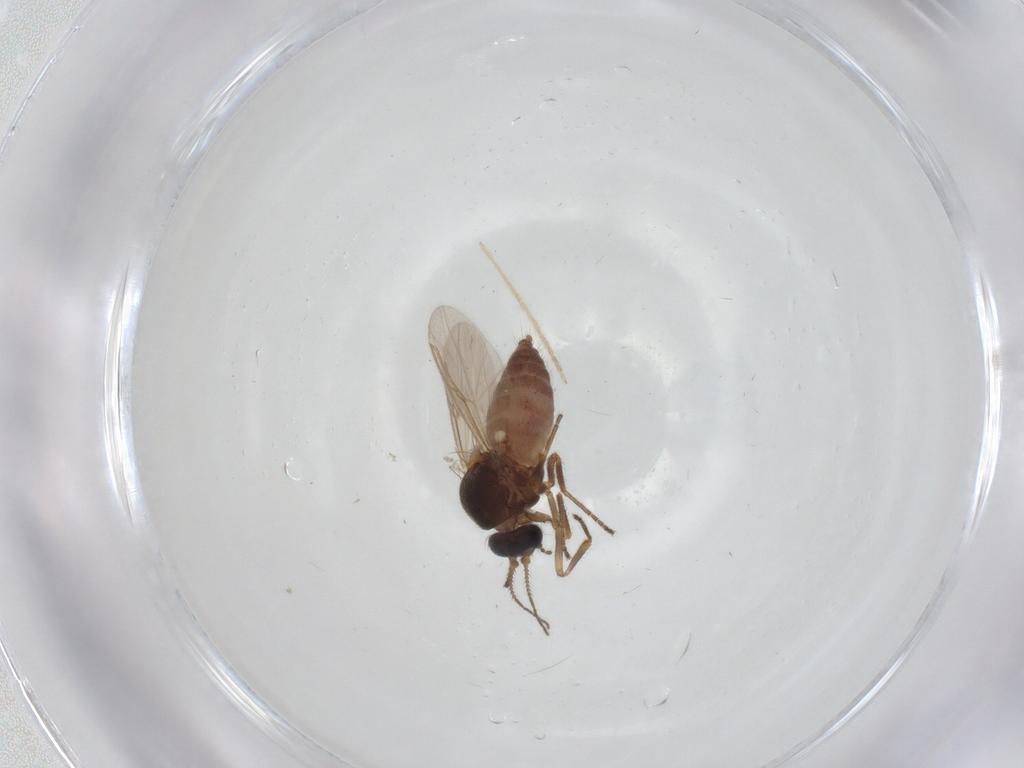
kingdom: Animalia
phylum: Arthropoda
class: Insecta
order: Diptera
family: Ceratopogonidae
